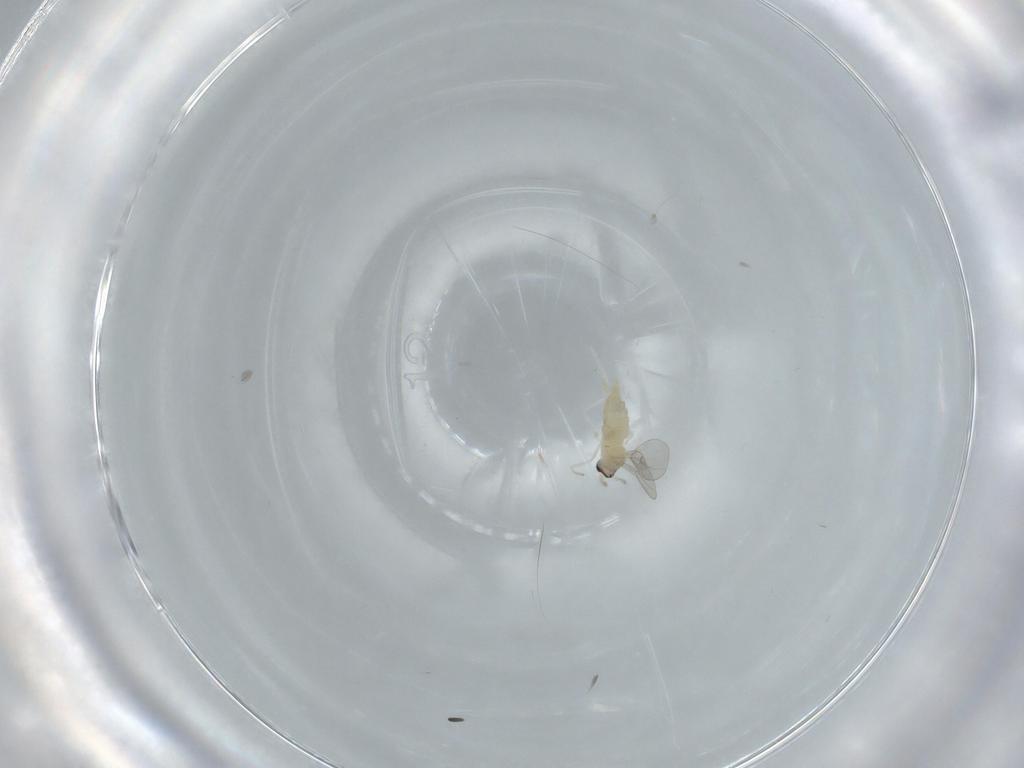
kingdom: Animalia
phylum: Arthropoda
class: Insecta
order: Diptera
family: Chironomidae
